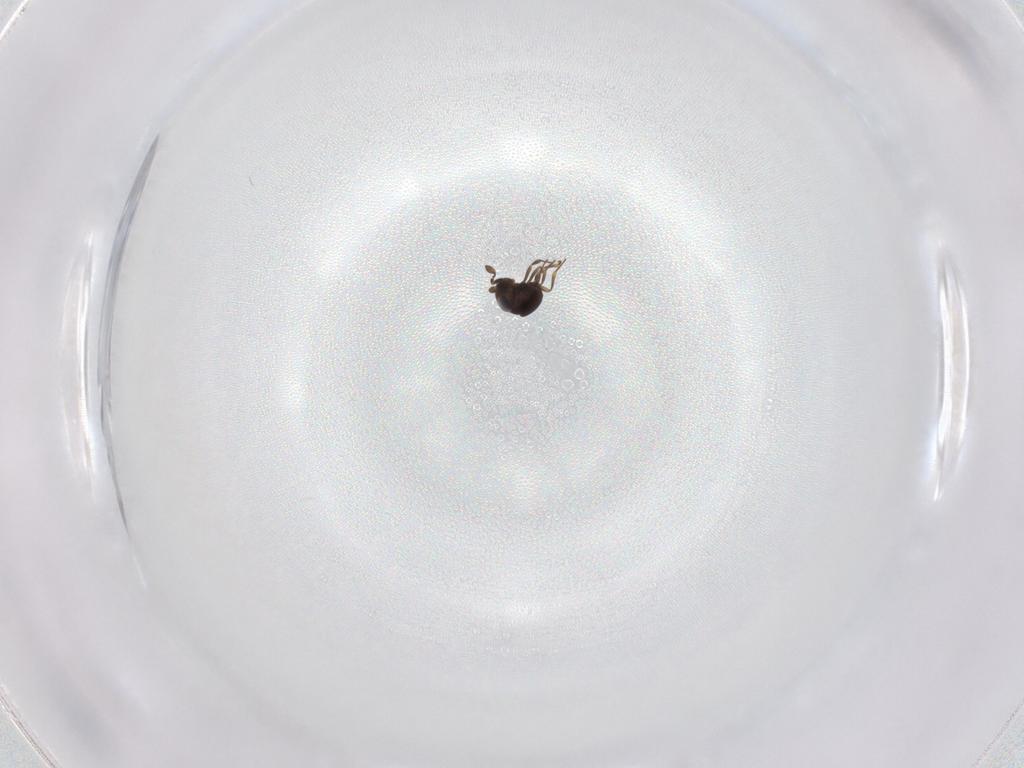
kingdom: Animalia
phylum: Arthropoda
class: Insecta
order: Hymenoptera
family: Scelionidae
